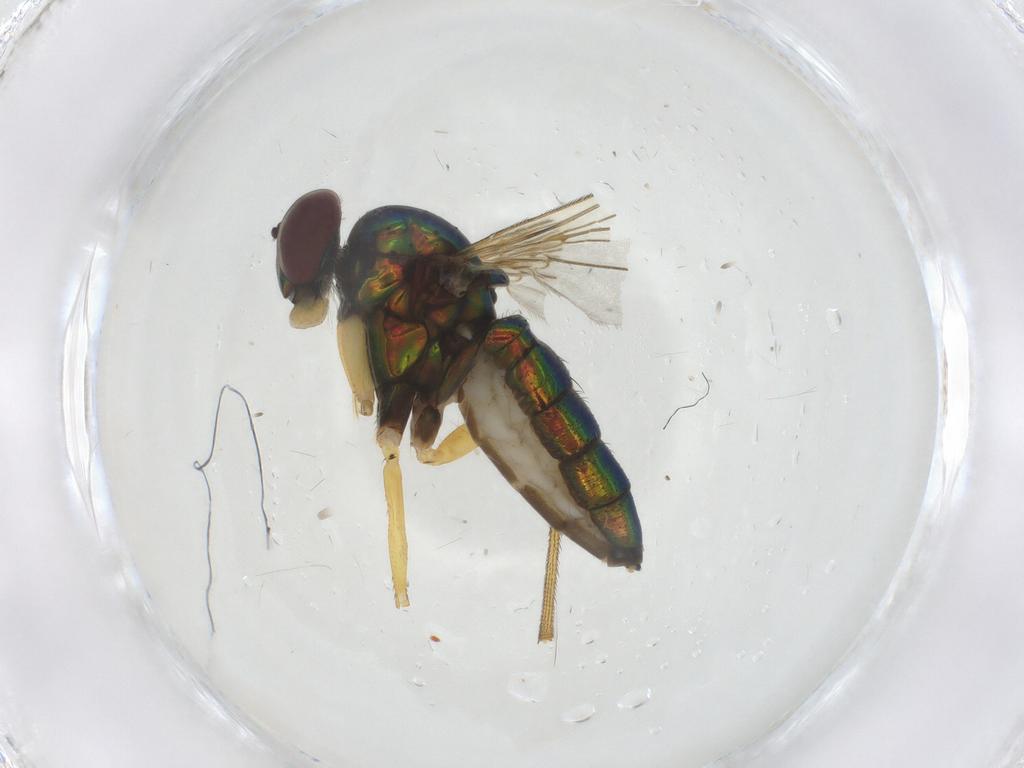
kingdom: Animalia
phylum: Arthropoda
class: Insecta
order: Diptera
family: Dolichopodidae
